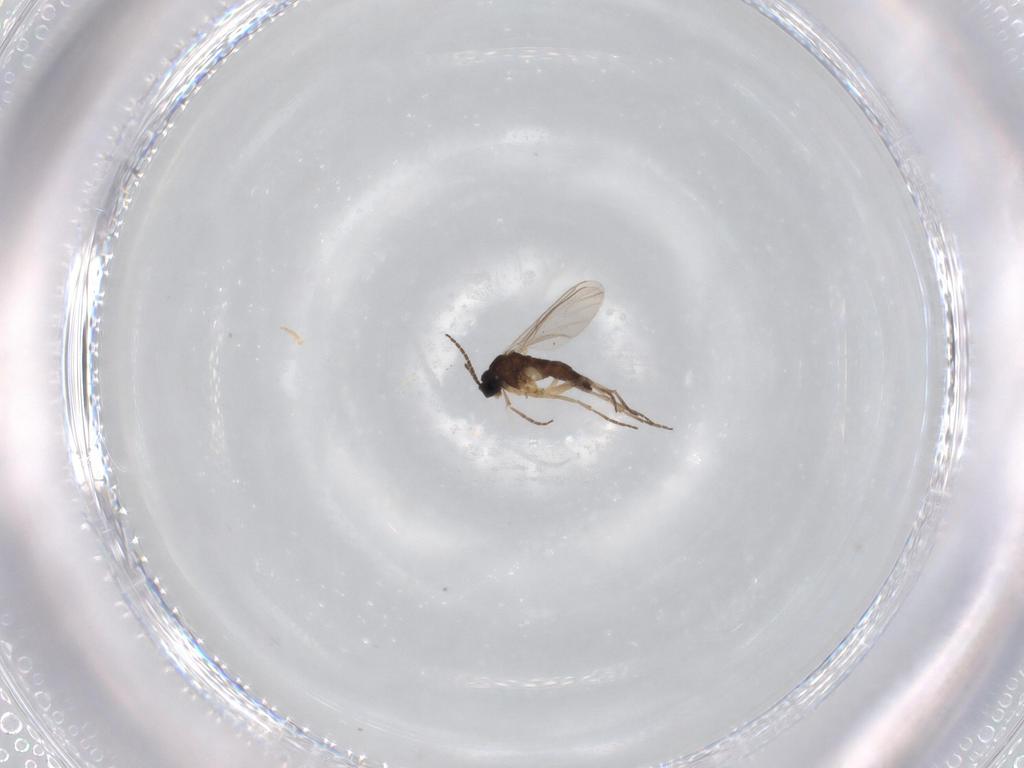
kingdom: Animalia
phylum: Arthropoda
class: Insecta
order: Diptera
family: Sciaridae
